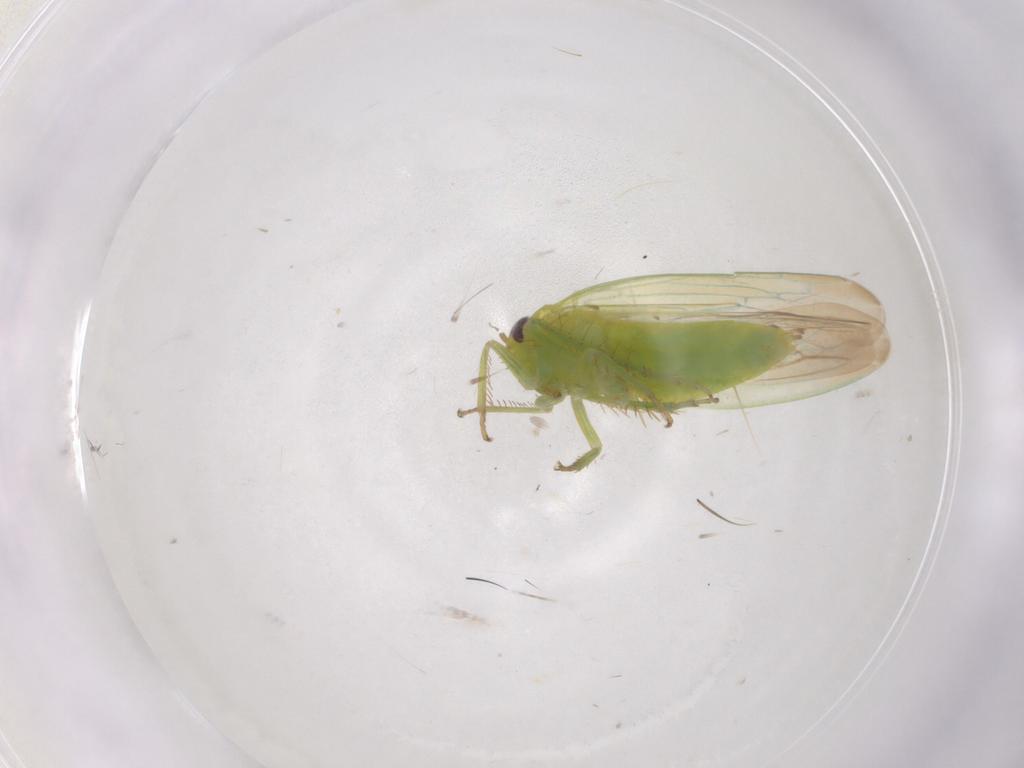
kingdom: Animalia
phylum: Arthropoda
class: Insecta
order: Hemiptera
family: Cicadellidae
